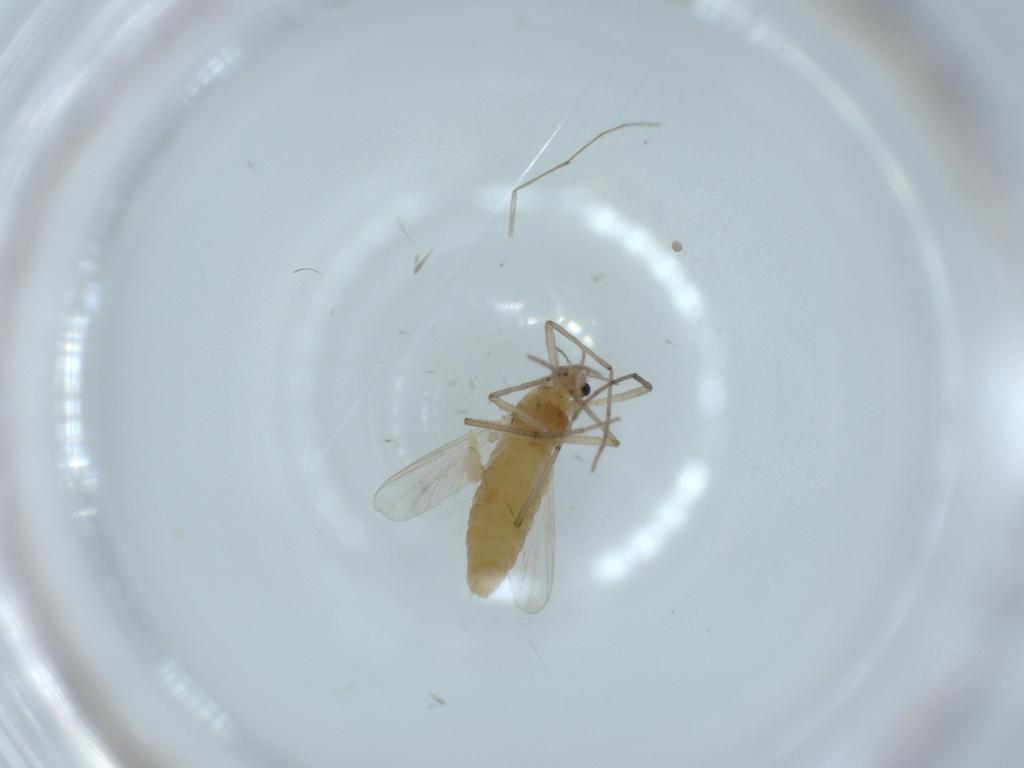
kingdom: Animalia
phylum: Arthropoda
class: Insecta
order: Diptera
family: Chironomidae
